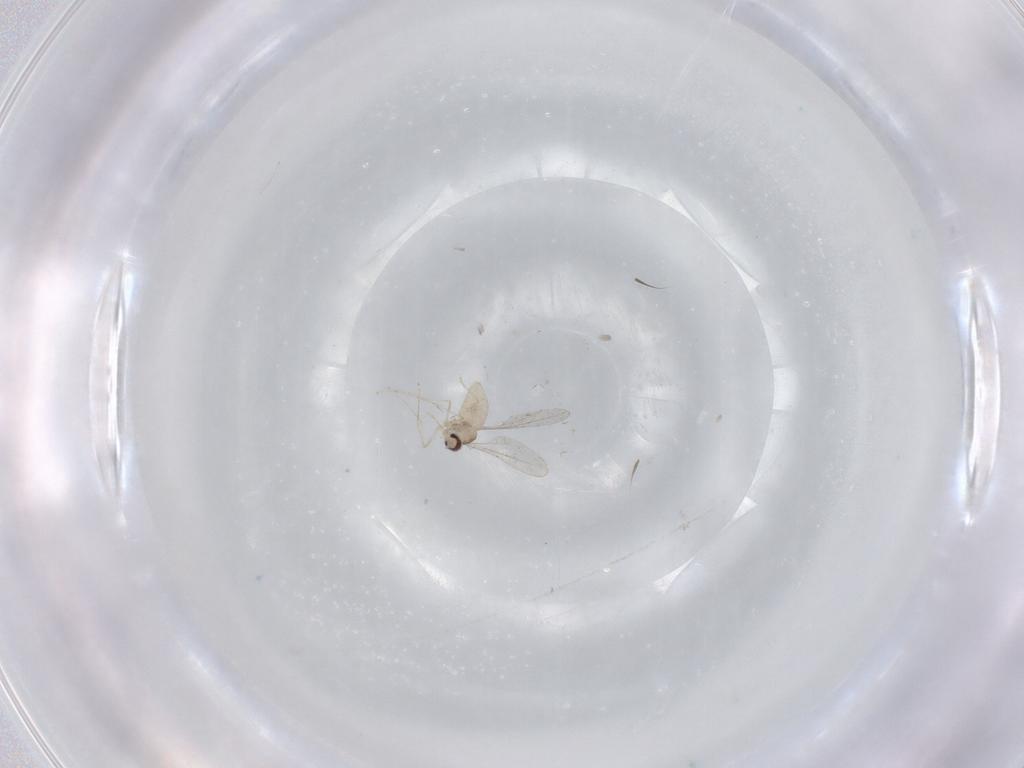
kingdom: Animalia
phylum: Arthropoda
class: Insecta
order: Diptera
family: Cecidomyiidae
